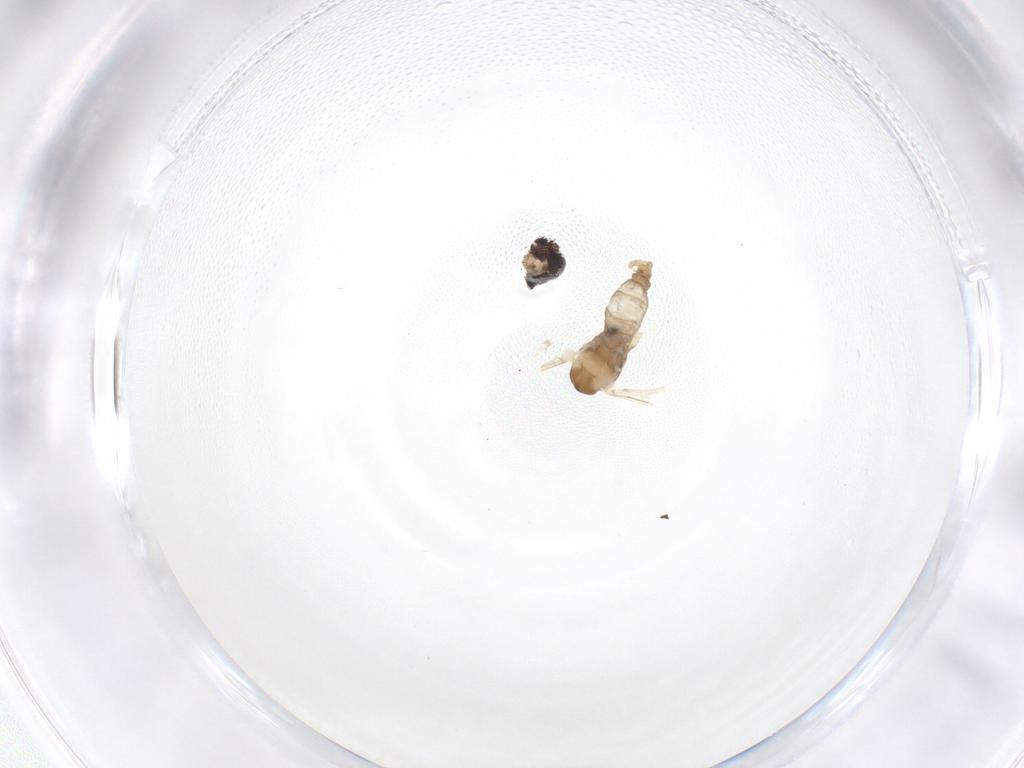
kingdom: Animalia
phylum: Arthropoda
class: Insecta
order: Diptera
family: Cecidomyiidae
